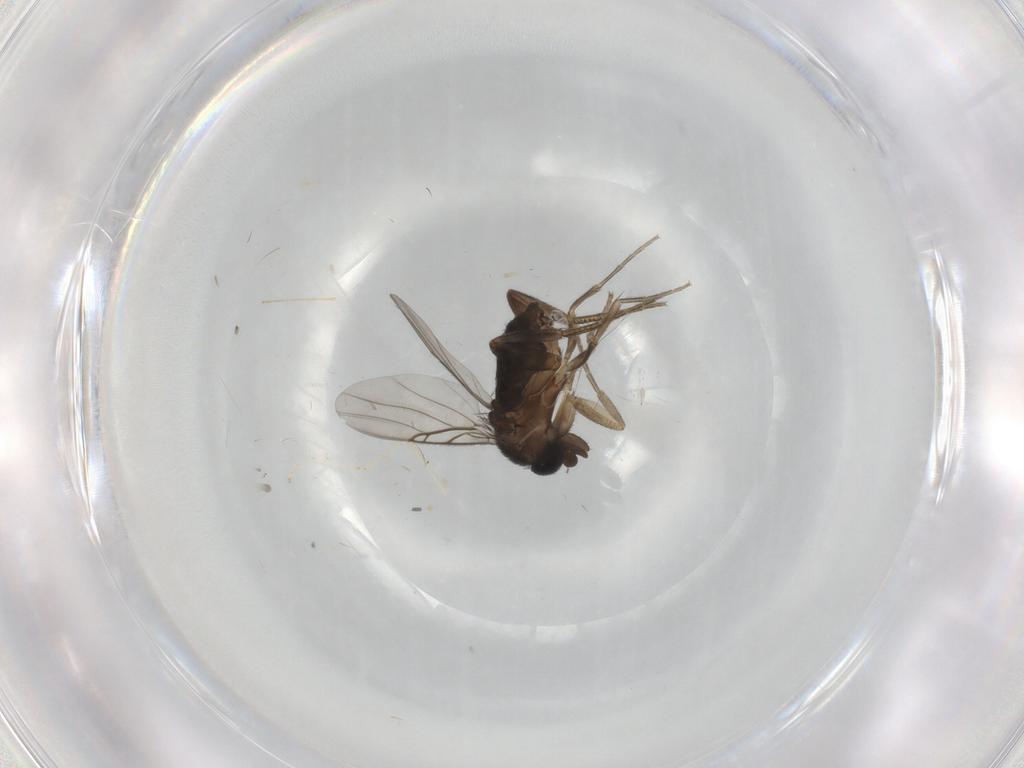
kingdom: Animalia
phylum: Arthropoda
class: Insecta
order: Diptera
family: Phoridae
